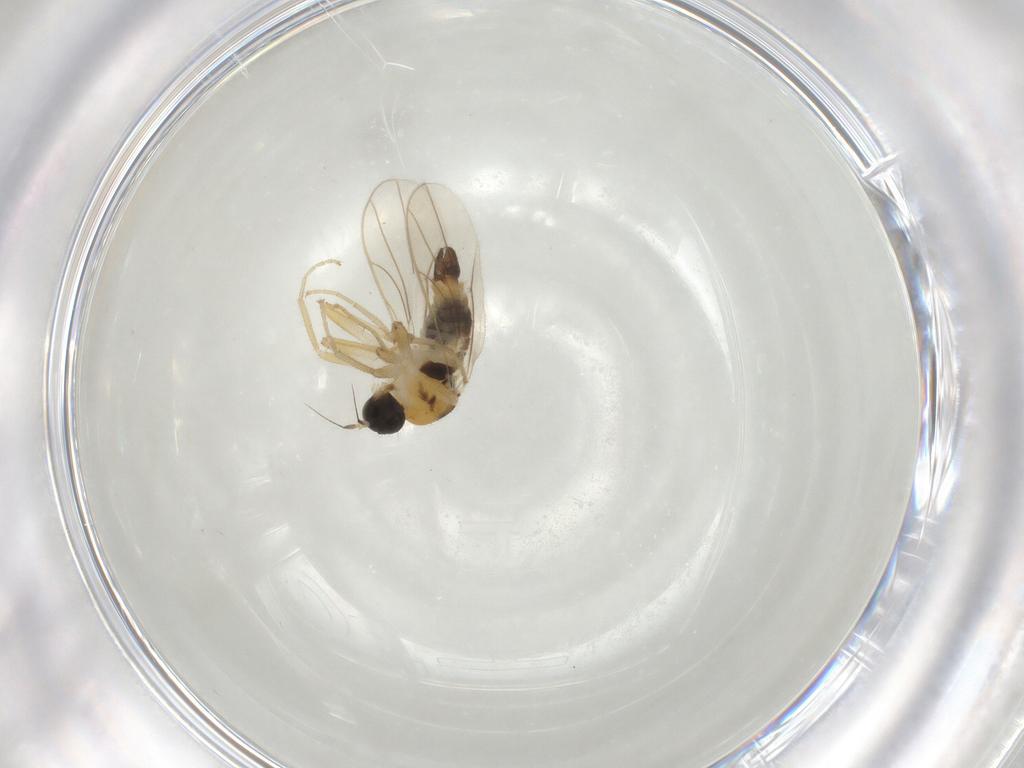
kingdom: Animalia
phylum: Arthropoda
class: Insecta
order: Diptera
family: Hybotidae
